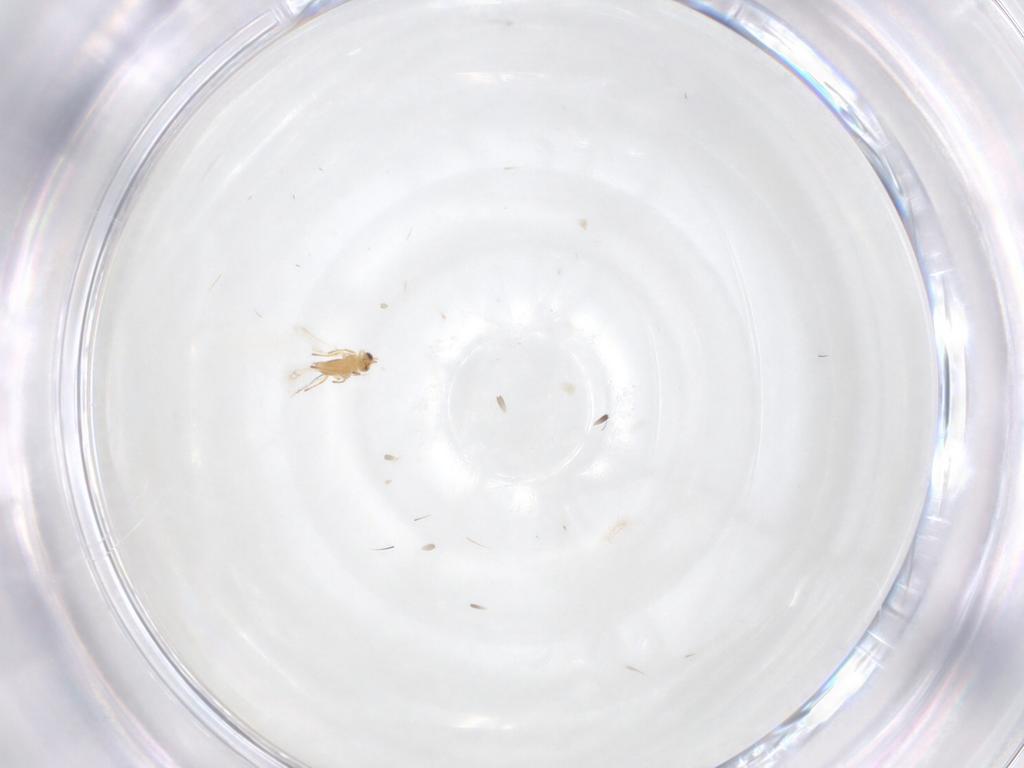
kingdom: Animalia
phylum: Arthropoda
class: Insecta
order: Hymenoptera
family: Mymaridae
